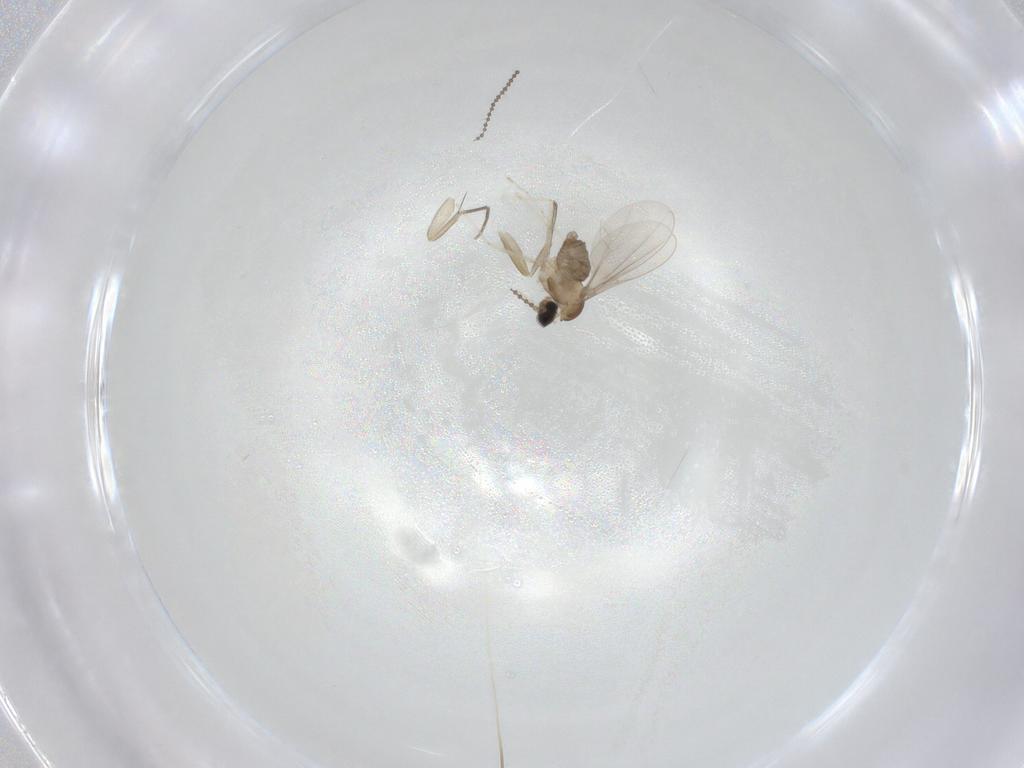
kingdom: Animalia
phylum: Arthropoda
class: Insecta
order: Diptera
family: Phoridae
